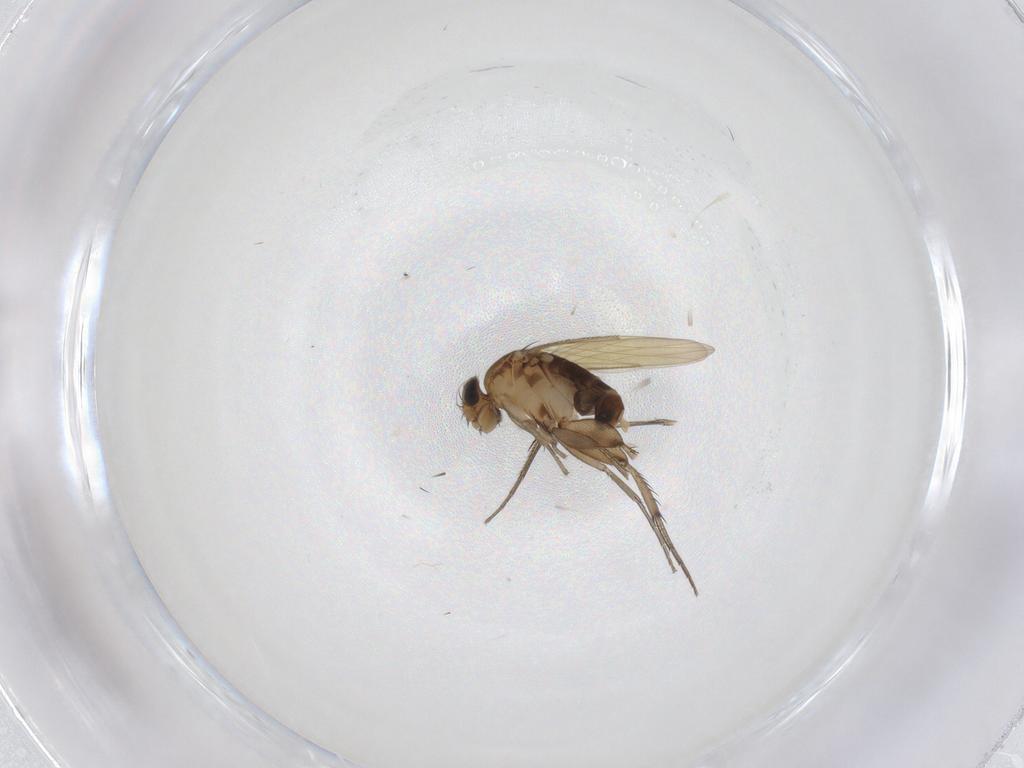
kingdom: Animalia
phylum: Arthropoda
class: Insecta
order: Diptera
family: Phoridae
